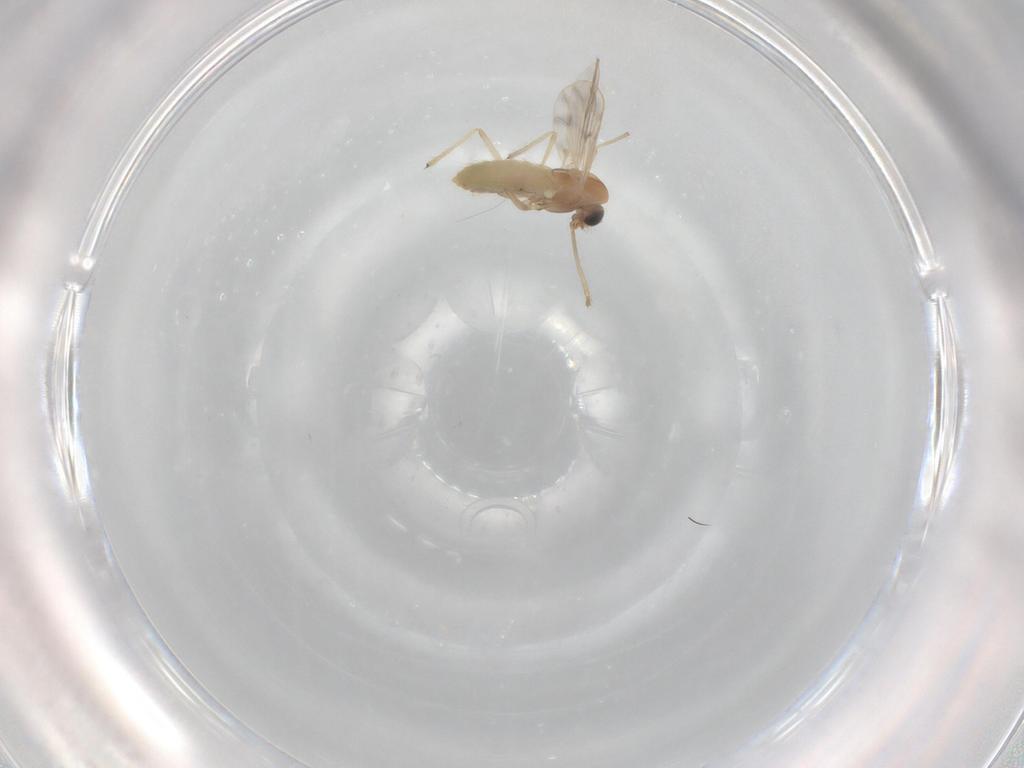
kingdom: Animalia
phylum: Arthropoda
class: Insecta
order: Diptera
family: Chironomidae
